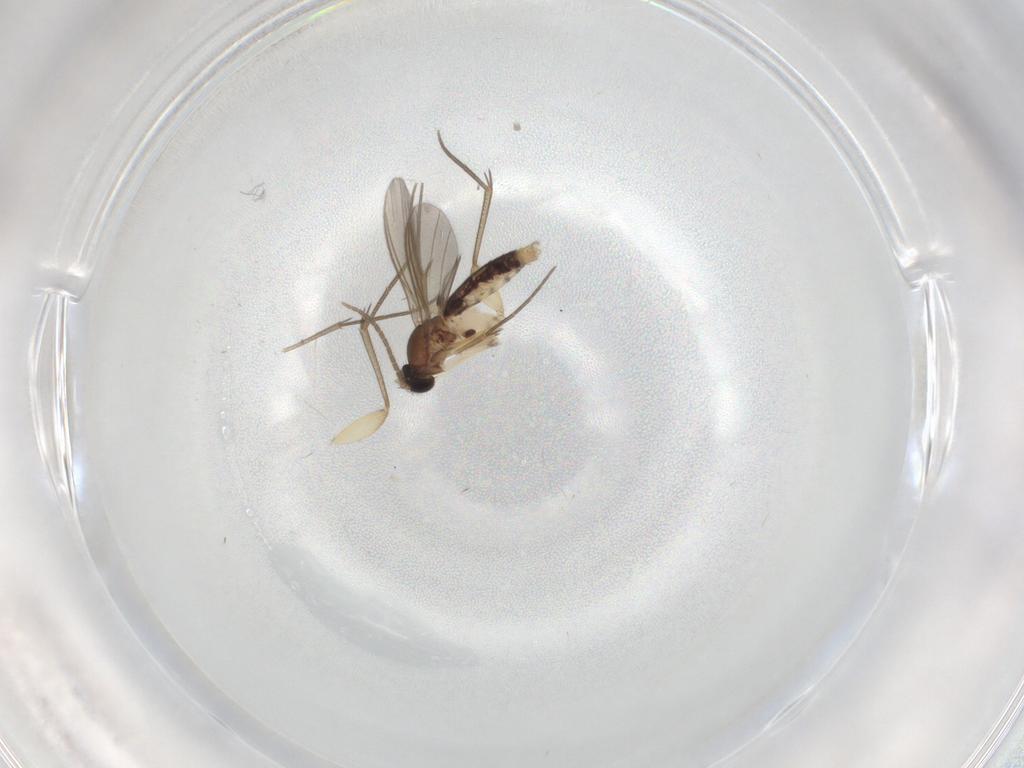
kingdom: Animalia
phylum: Arthropoda
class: Insecta
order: Diptera
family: Mycetophilidae
